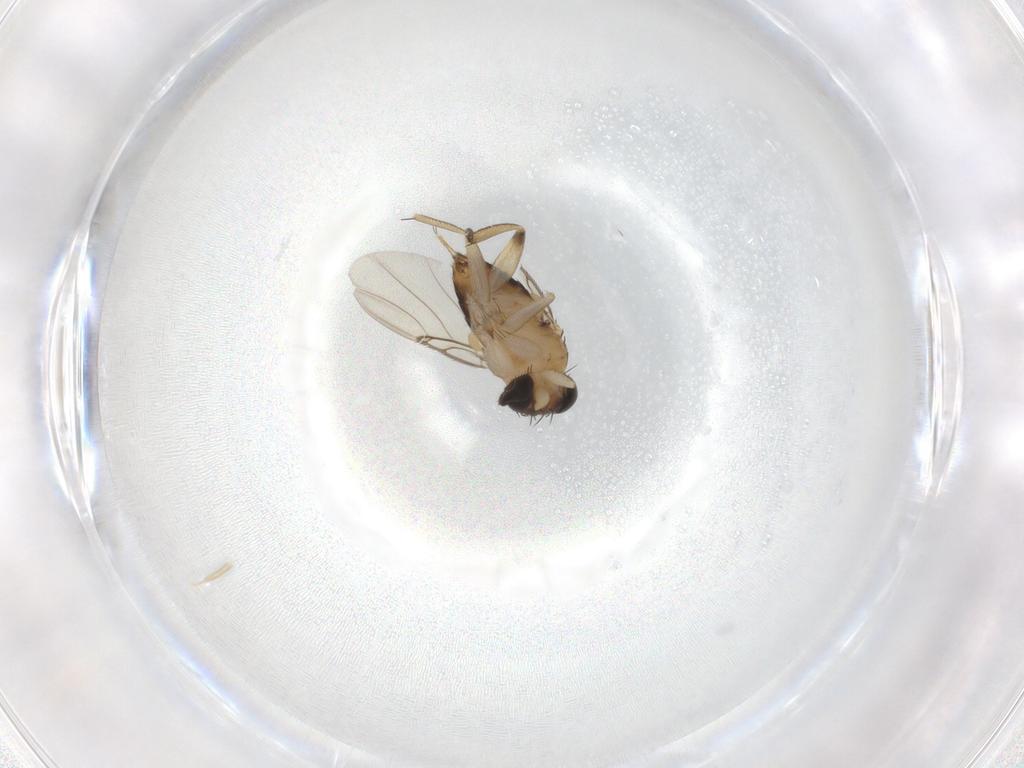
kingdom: Animalia
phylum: Arthropoda
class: Insecta
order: Diptera
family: Phoridae
